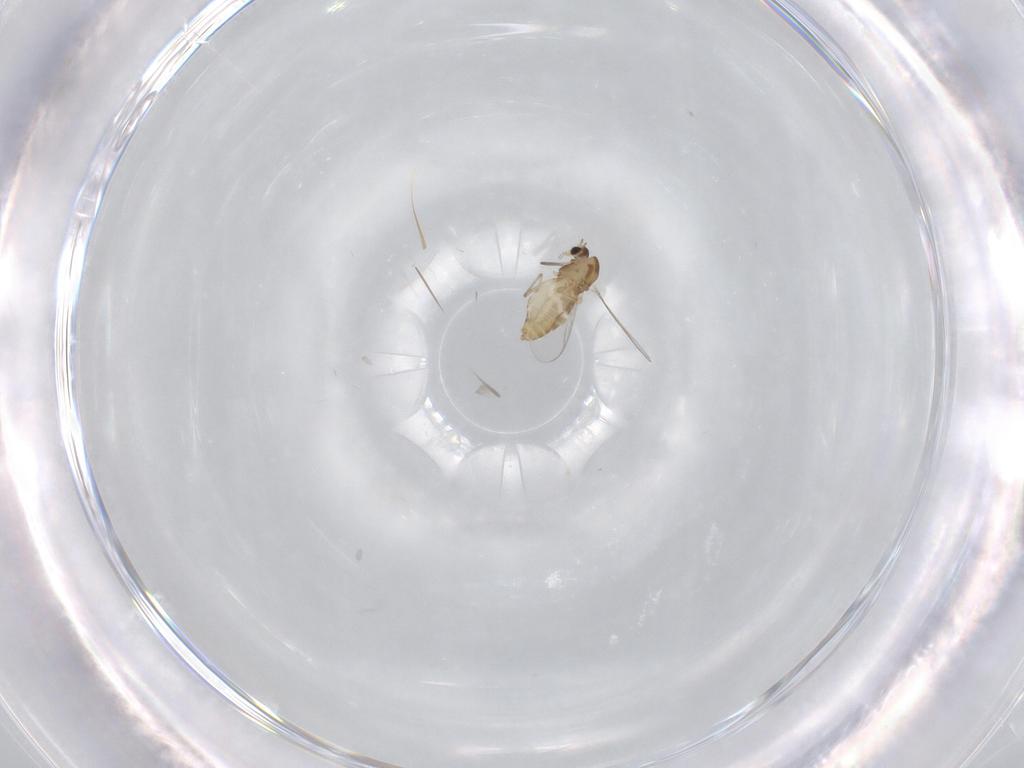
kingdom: Animalia
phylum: Arthropoda
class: Insecta
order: Diptera
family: Chironomidae
